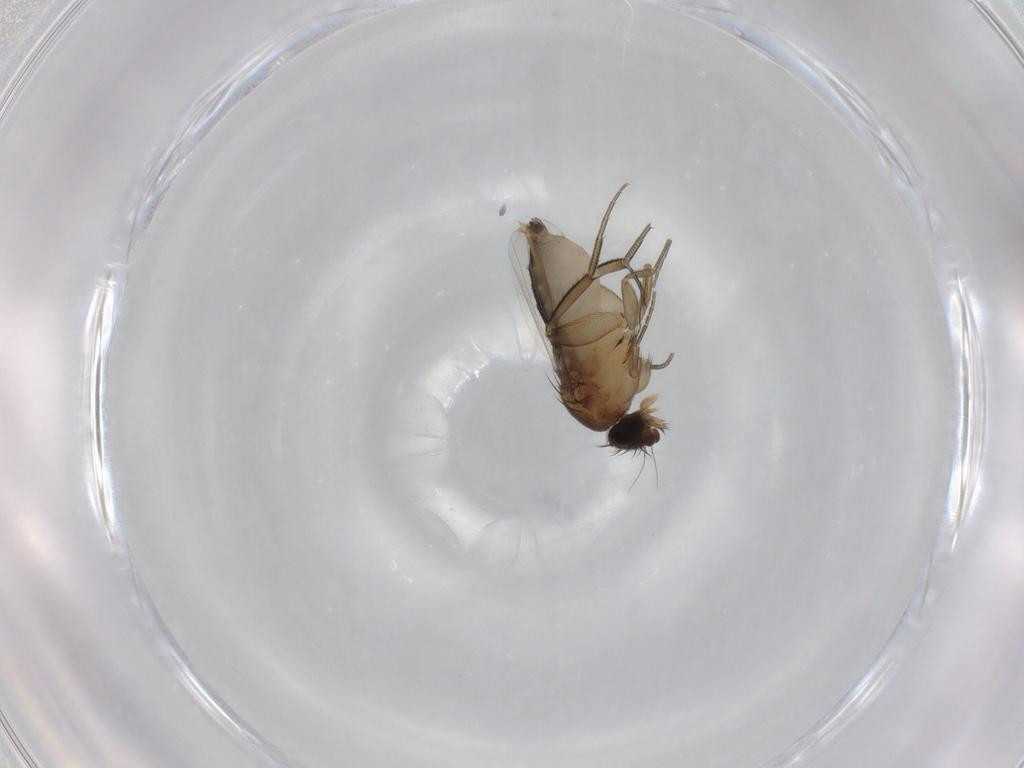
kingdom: Animalia
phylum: Arthropoda
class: Insecta
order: Diptera
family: Phoridae
